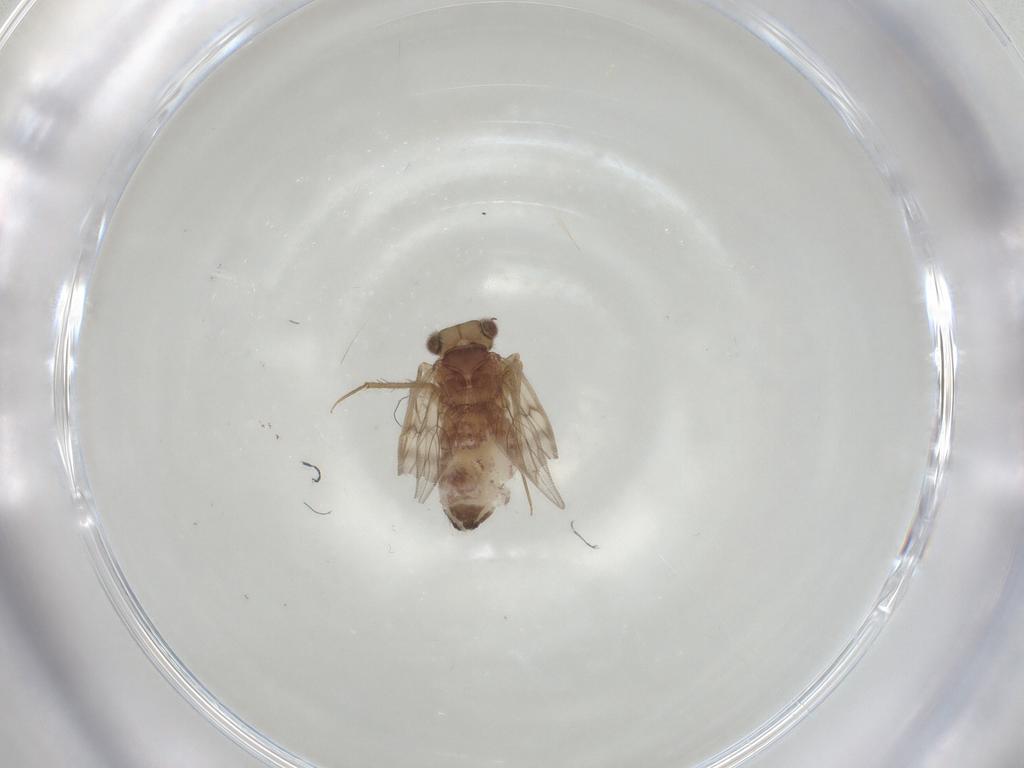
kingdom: Animalia
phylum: Arthropoda
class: Insecta
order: Psocodea
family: Lepidopsocidae
